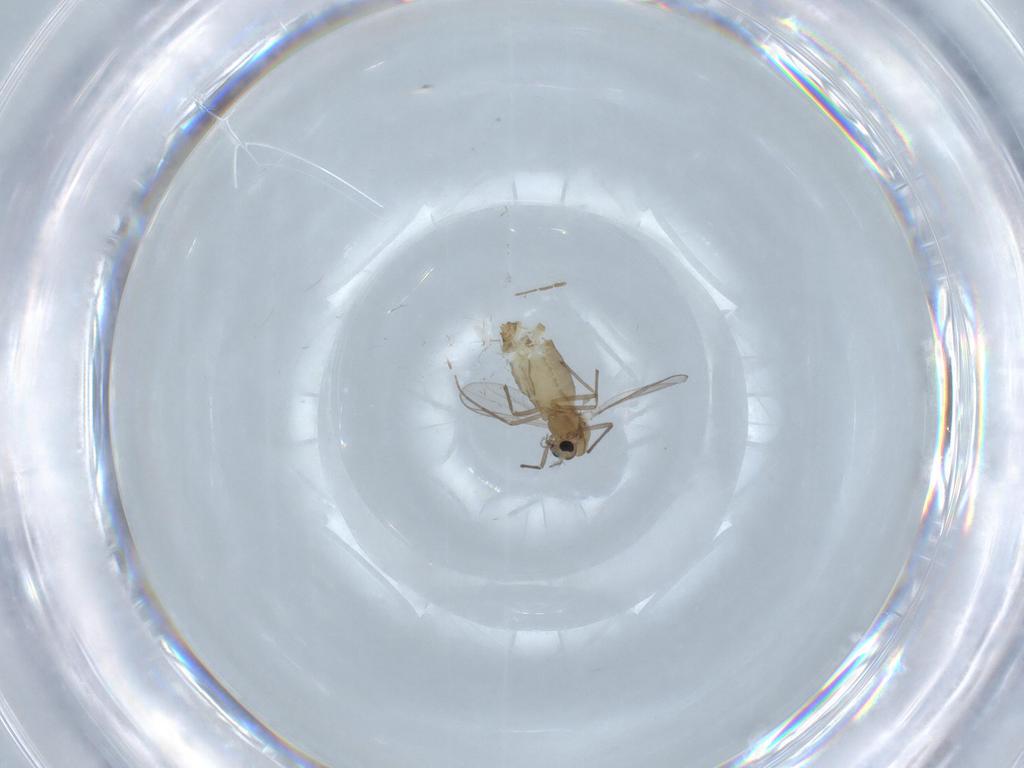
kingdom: Animalia
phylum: Arthropoda
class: Insecta
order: Diptera
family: Chironomidae
